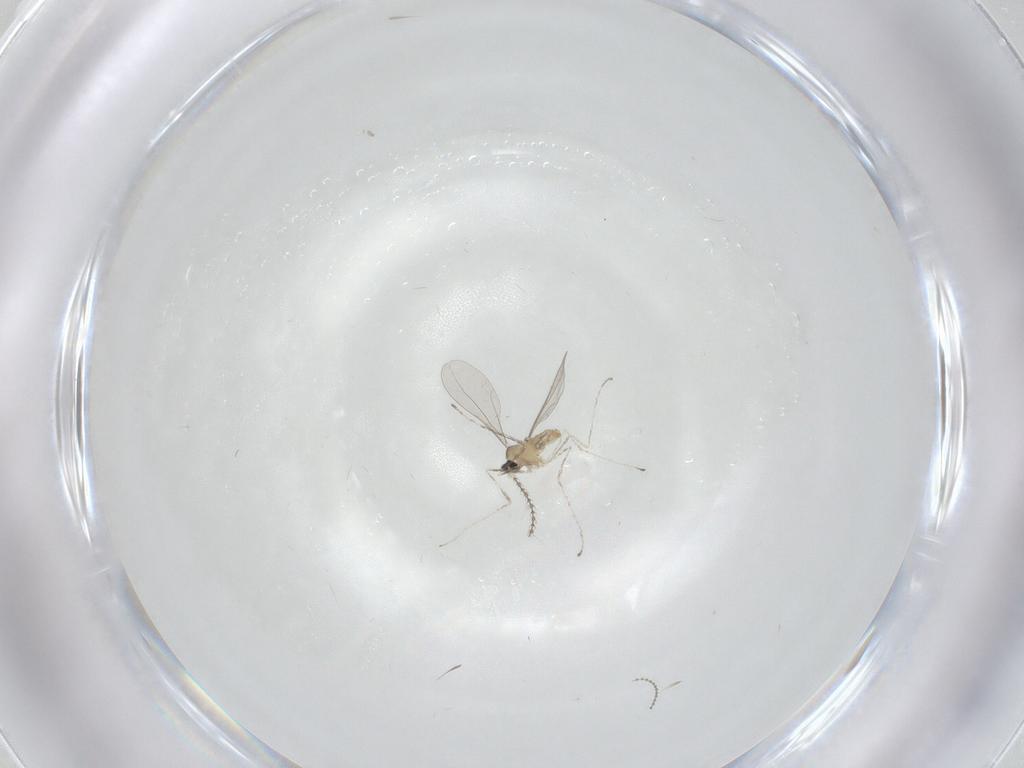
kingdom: Animalia
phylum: Arthropoda
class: Insecta
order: Diptera
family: Cecidomyiidae
